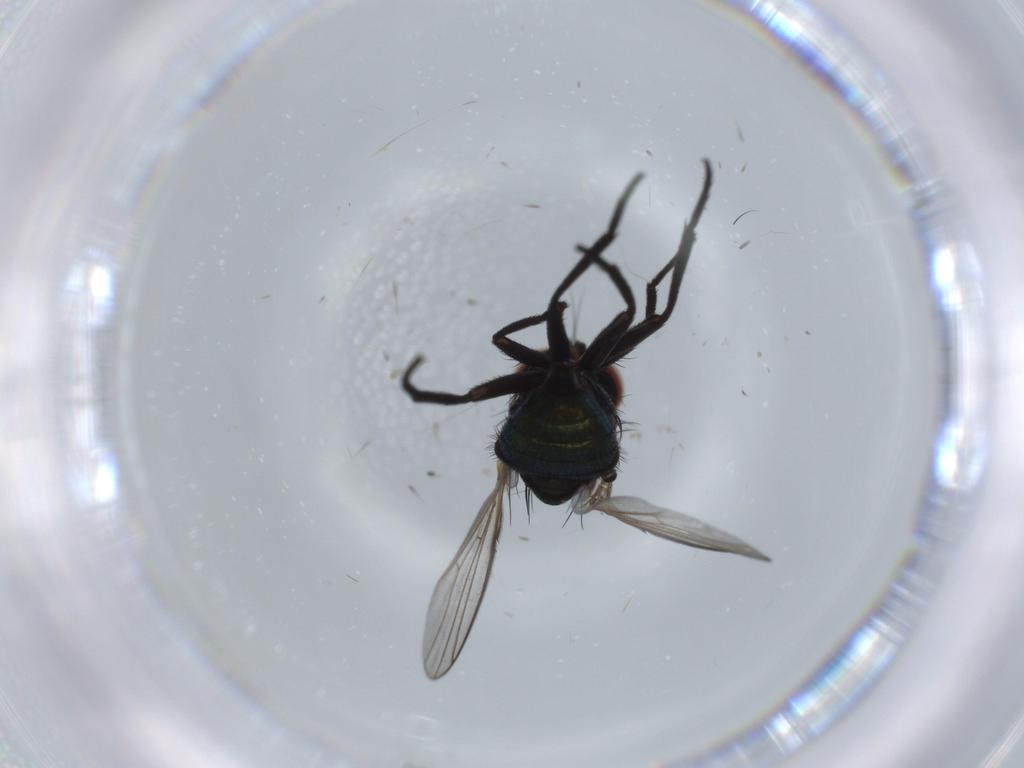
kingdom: Animalia
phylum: Arthropoda
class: Insecta
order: Diptera
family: Agromyzidae
